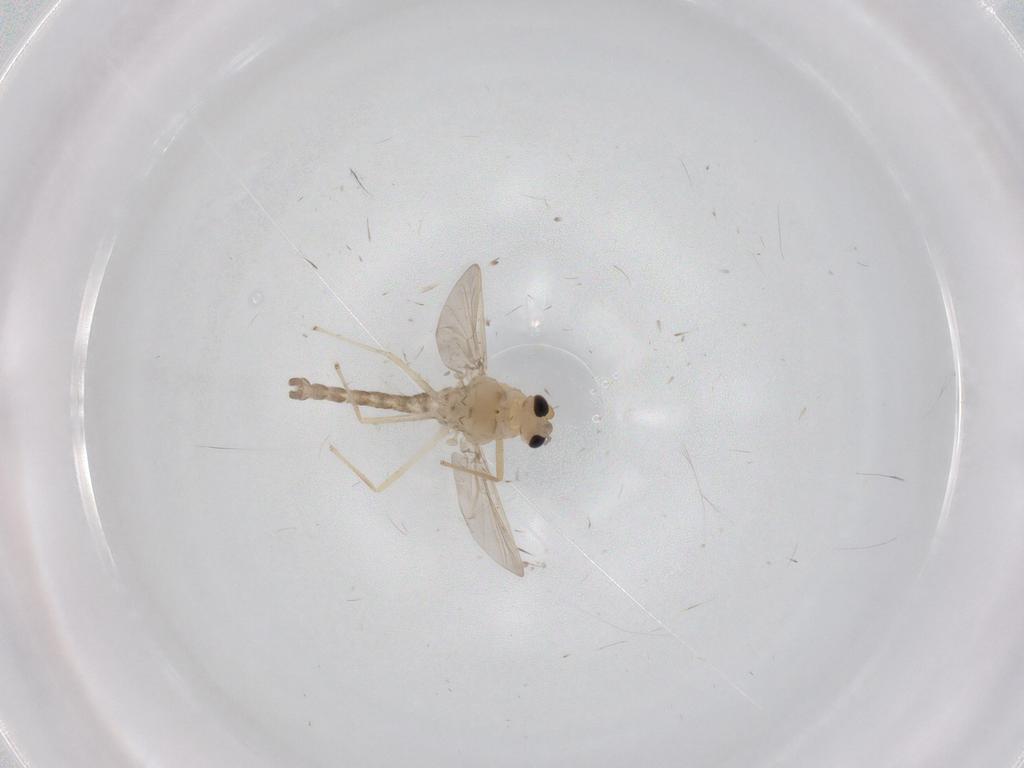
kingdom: Animalia
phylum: Arthropoda
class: Insecta
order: Diptera
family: Chironomidae
